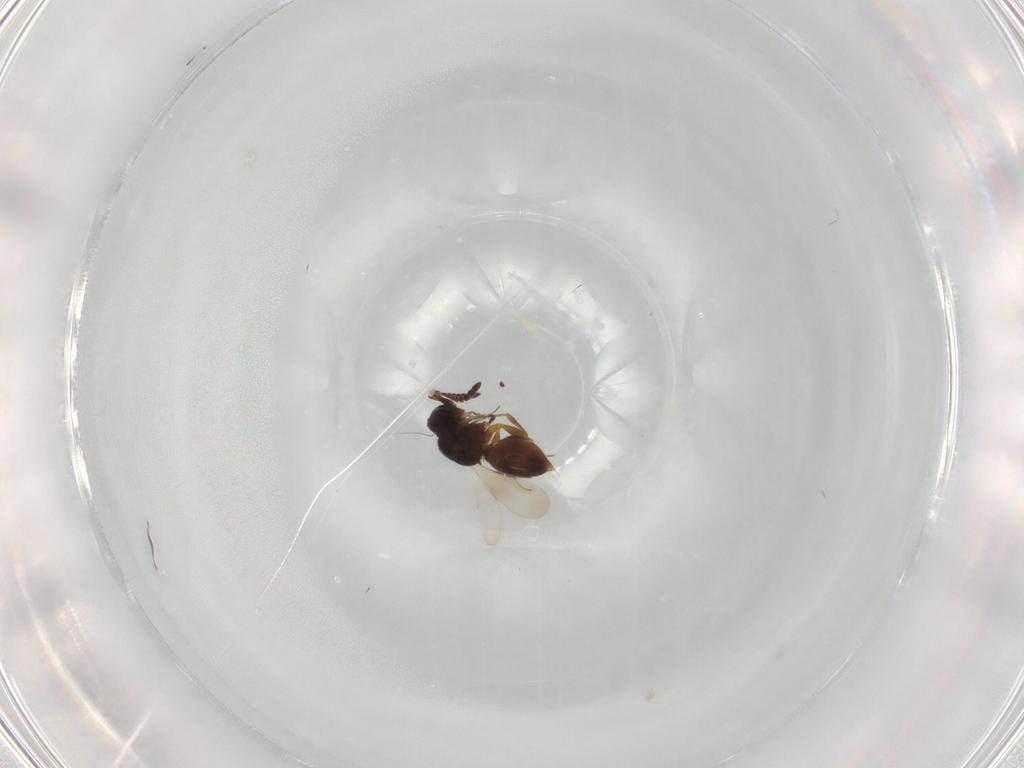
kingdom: Animalia
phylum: Arthropoda
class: Insecta
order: Hymenoptera
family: Ceraphronidae
